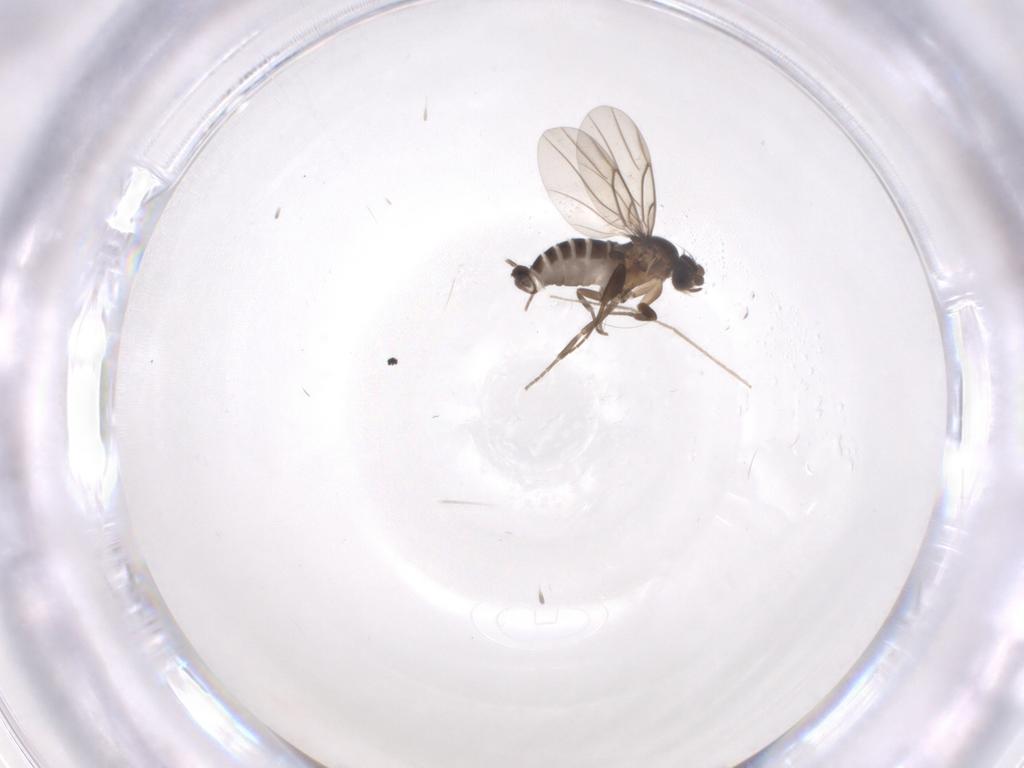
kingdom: Animalia
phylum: Arthropoda
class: Insecta
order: Diptera
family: Phoridae
